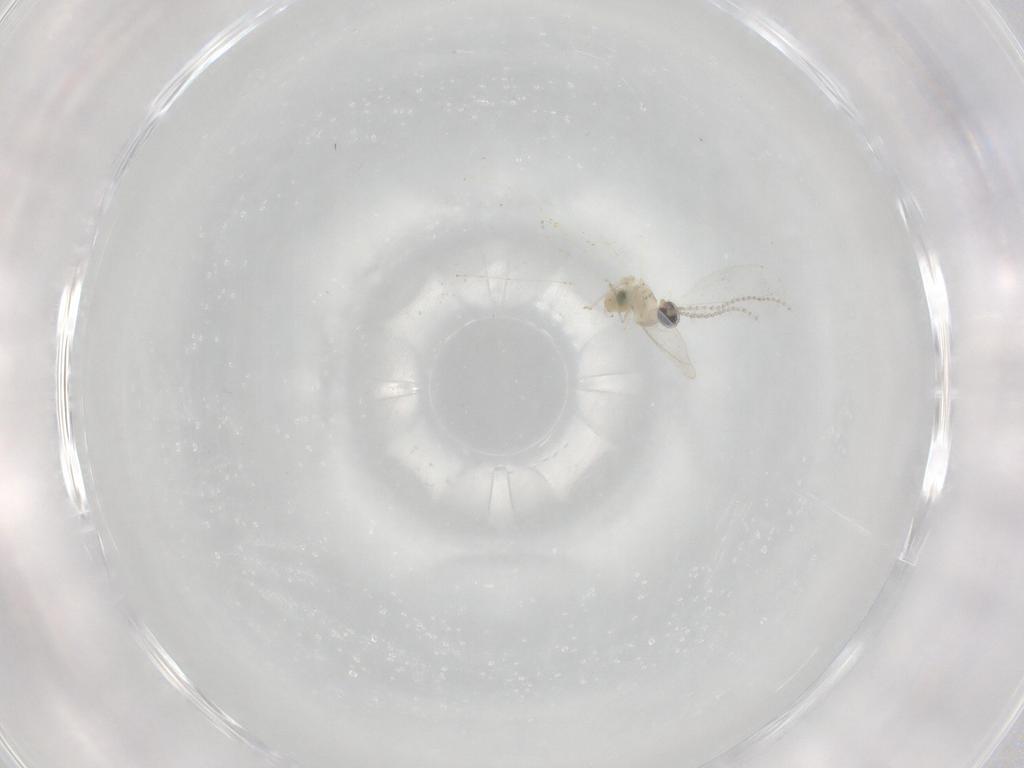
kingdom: Animalia
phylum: Arthropoda
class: Insecta
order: Diptera
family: Cecidomyiidae
